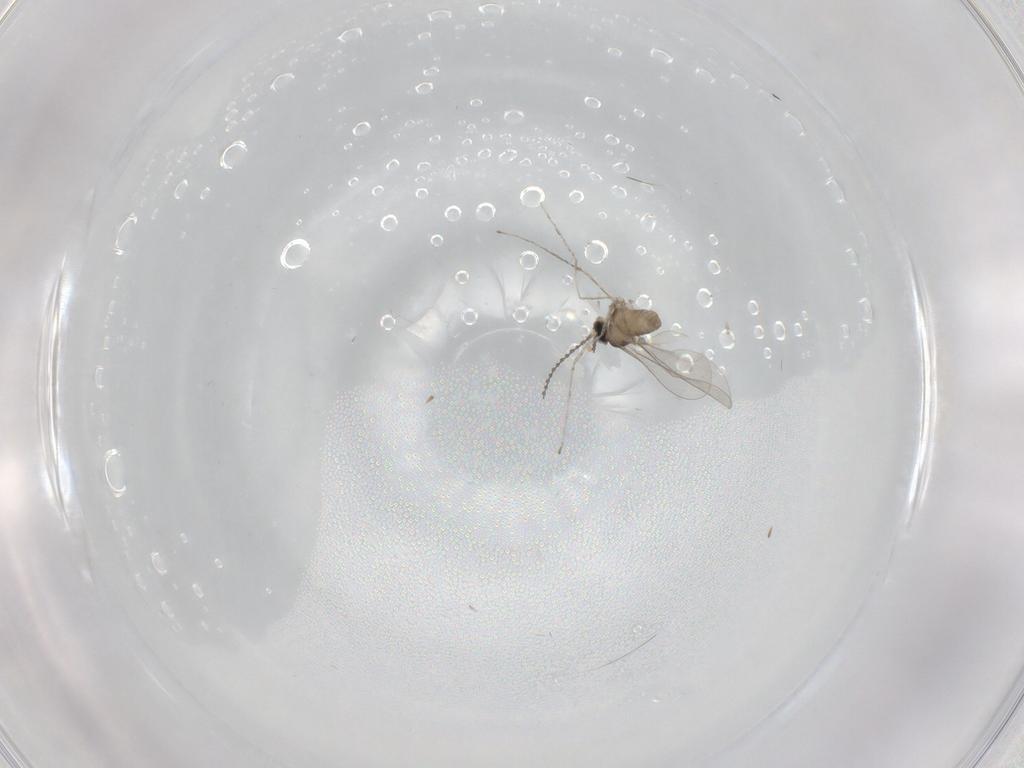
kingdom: Animalia
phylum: Arthropoda
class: Insecta
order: Diptera
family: Cecidomyiidae
